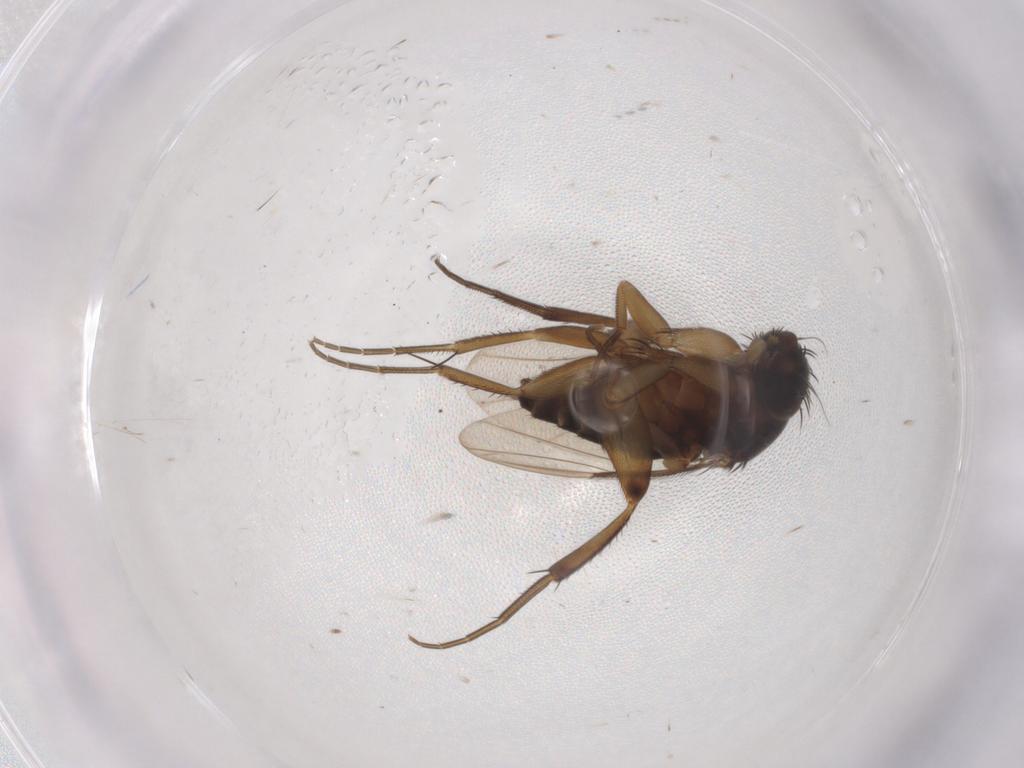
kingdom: Animalia
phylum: Arthropoda
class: Insecta
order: Diptera
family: Phoridae
